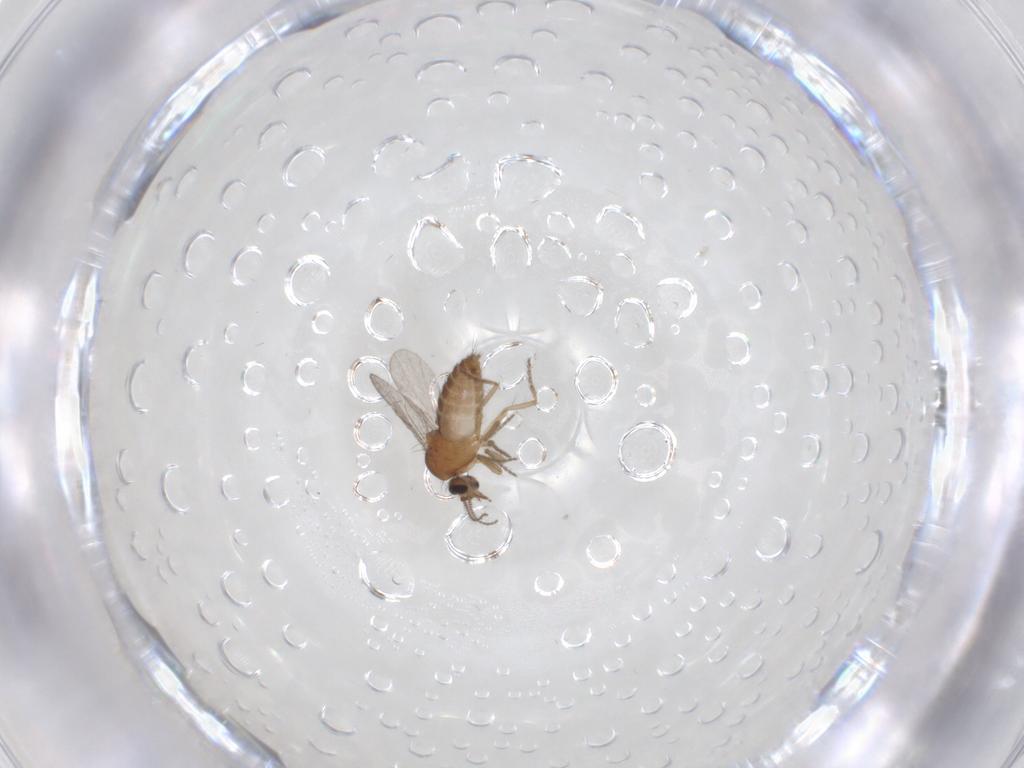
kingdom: Animalia
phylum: Arthropoda
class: Insecta
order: Diptera
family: Ceratopogonidae
